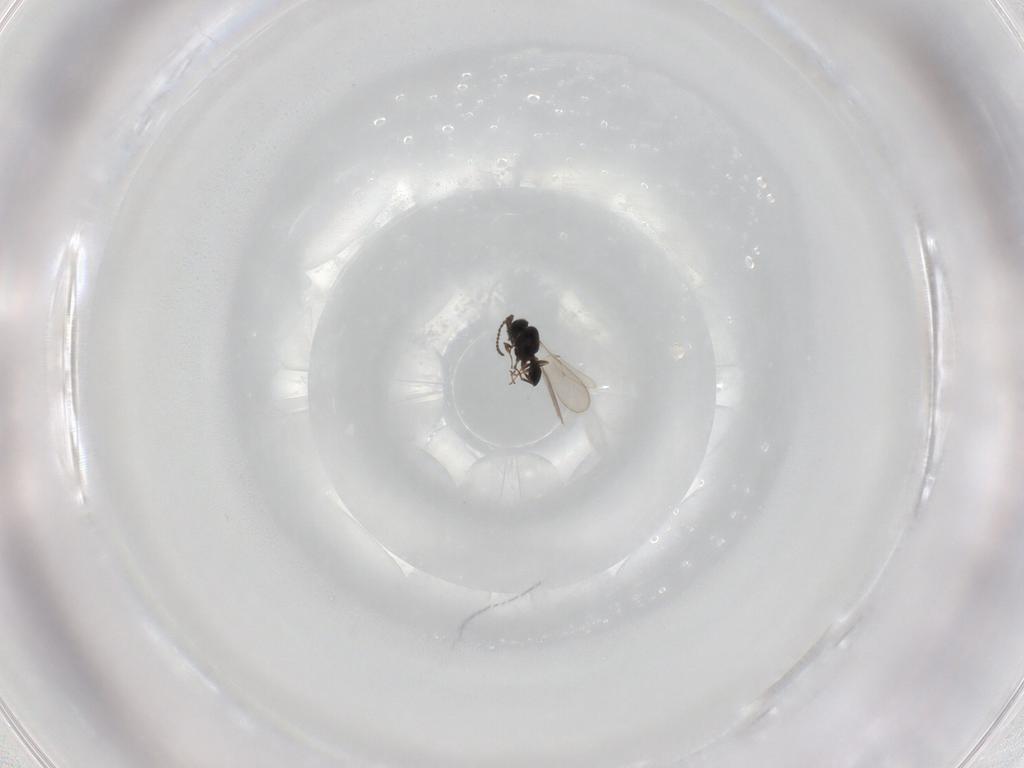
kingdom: Animalia
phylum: Arthropoda
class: Insecta
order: Hymenoptera
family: Scelionidae
